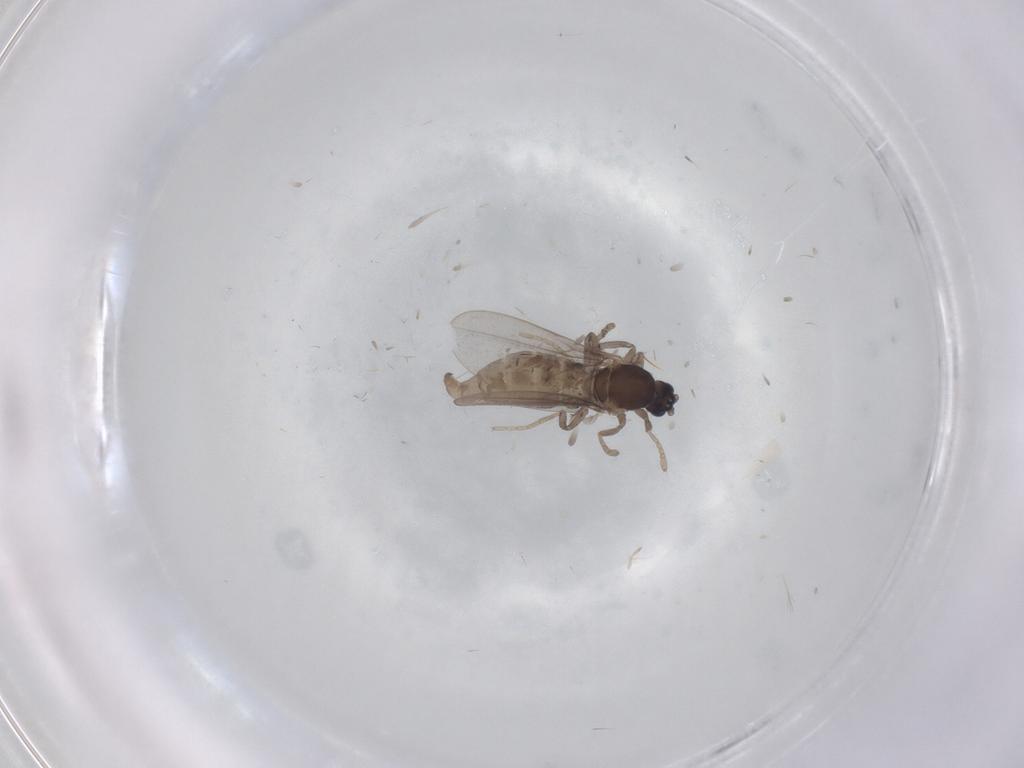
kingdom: Animalia
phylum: Arthropoda
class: Insecta
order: Diptera
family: Cecidomyiidae
